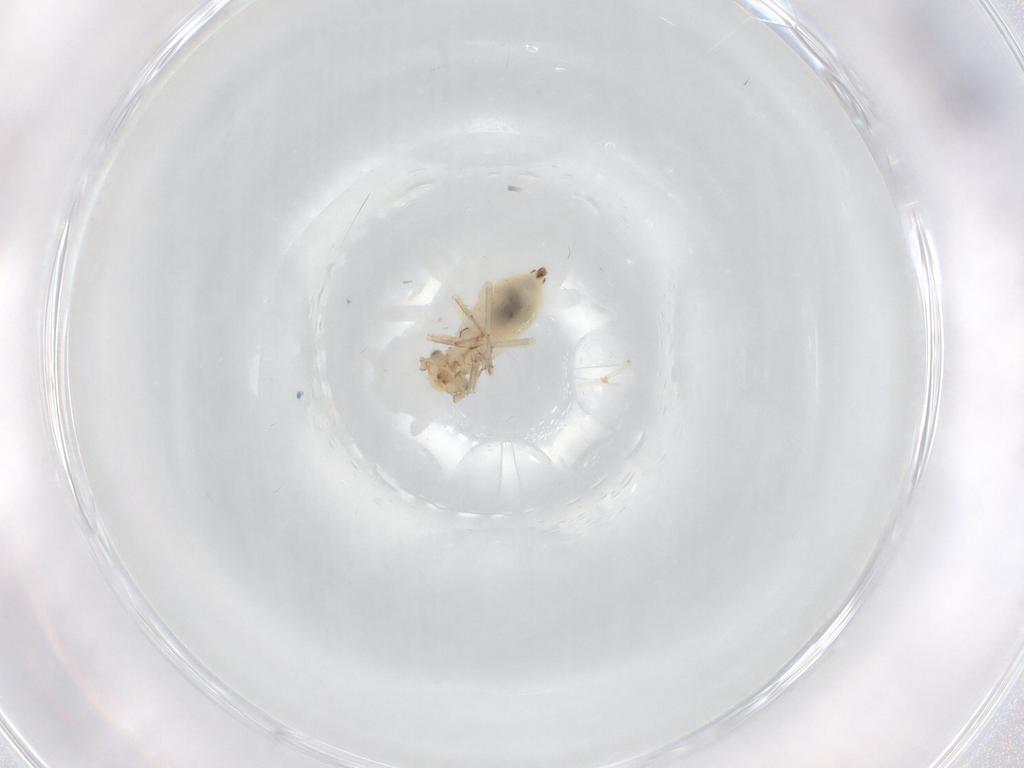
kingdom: Animalia
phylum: Arthropoda
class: Insecta
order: Psocodea
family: Lepidopsocidae
